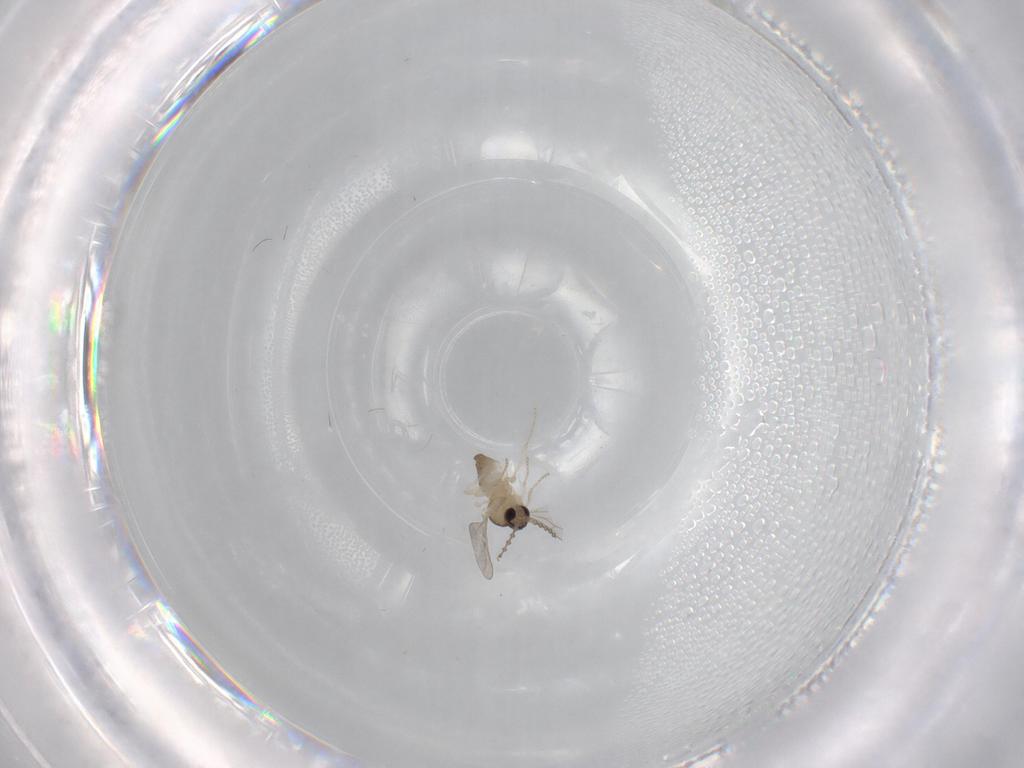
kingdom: Animalia
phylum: Arthropoda
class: Insecta
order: Diptera
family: Cecidomyiidae
